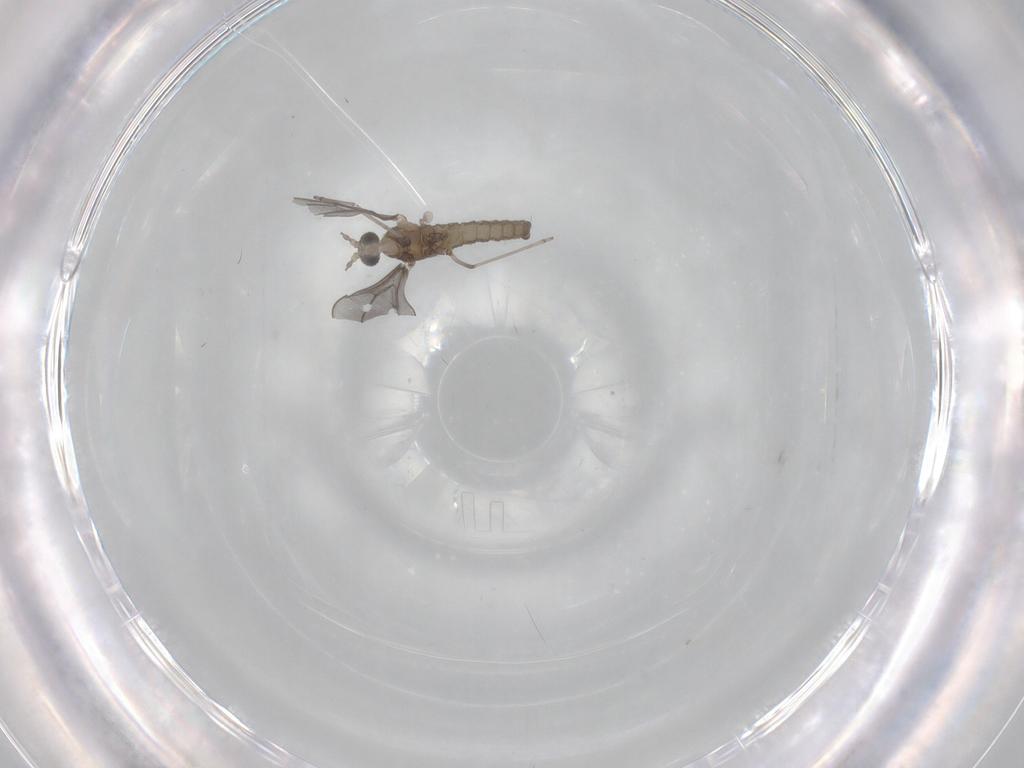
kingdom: Animalia
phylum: Arthropoda
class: Insecta
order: Diptera
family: Cecidomyiidae
